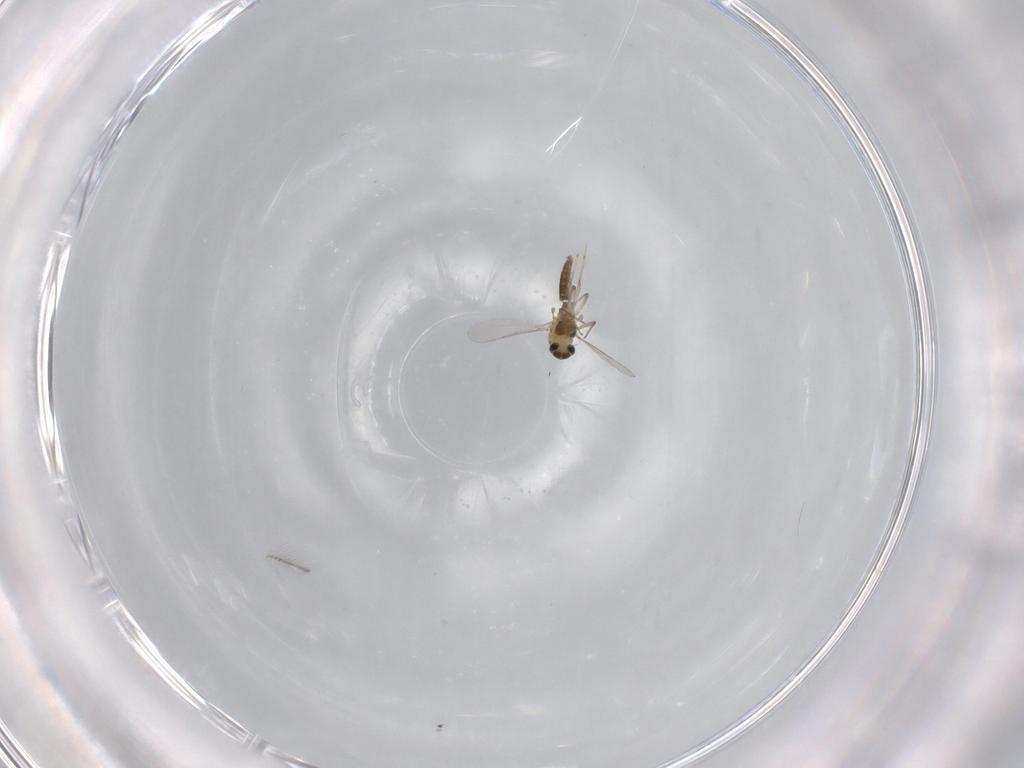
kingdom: Animalia
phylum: Arthropoda
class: Insecta
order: Diptera
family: Chironomidae
